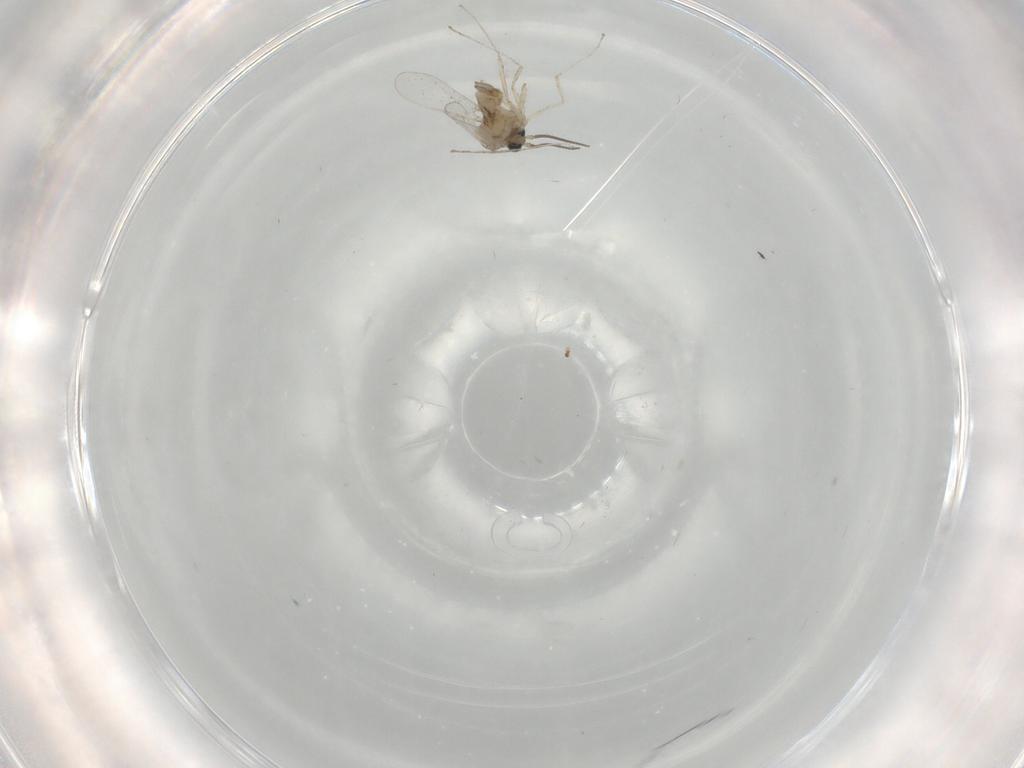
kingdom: Animalia
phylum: Arthropoda
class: Insecta
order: Diptera
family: Cecidomyiidae
